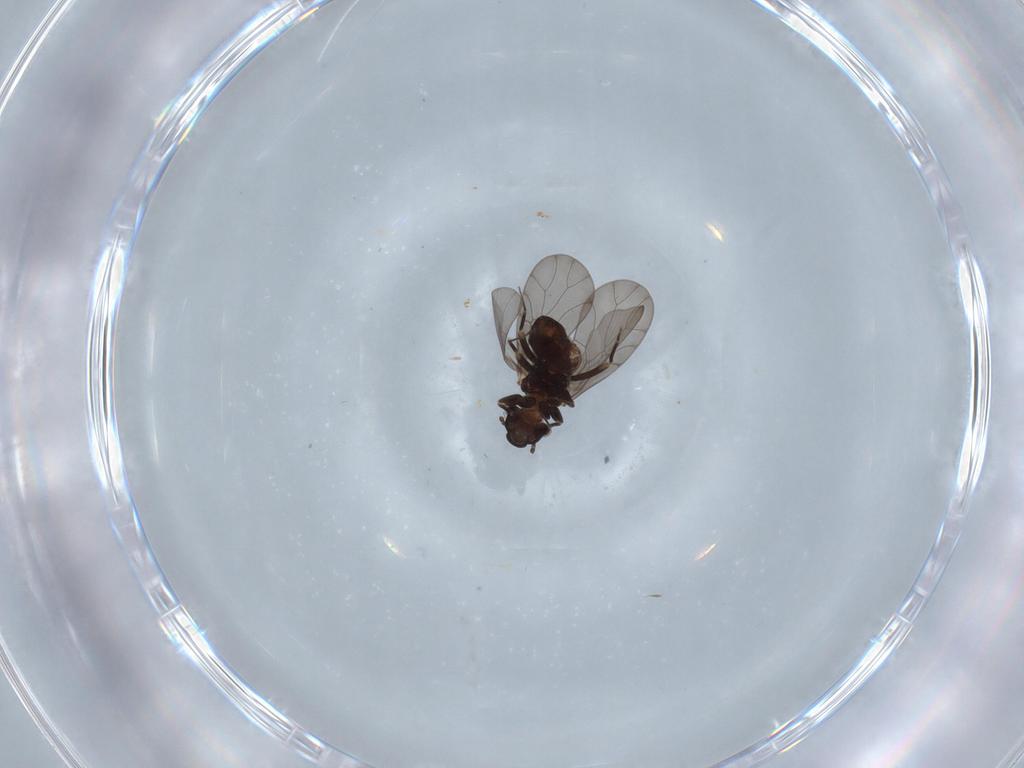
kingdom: Animalia
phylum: Arthropoda
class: Insecta
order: Psocodea
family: Lepidopsocidae
